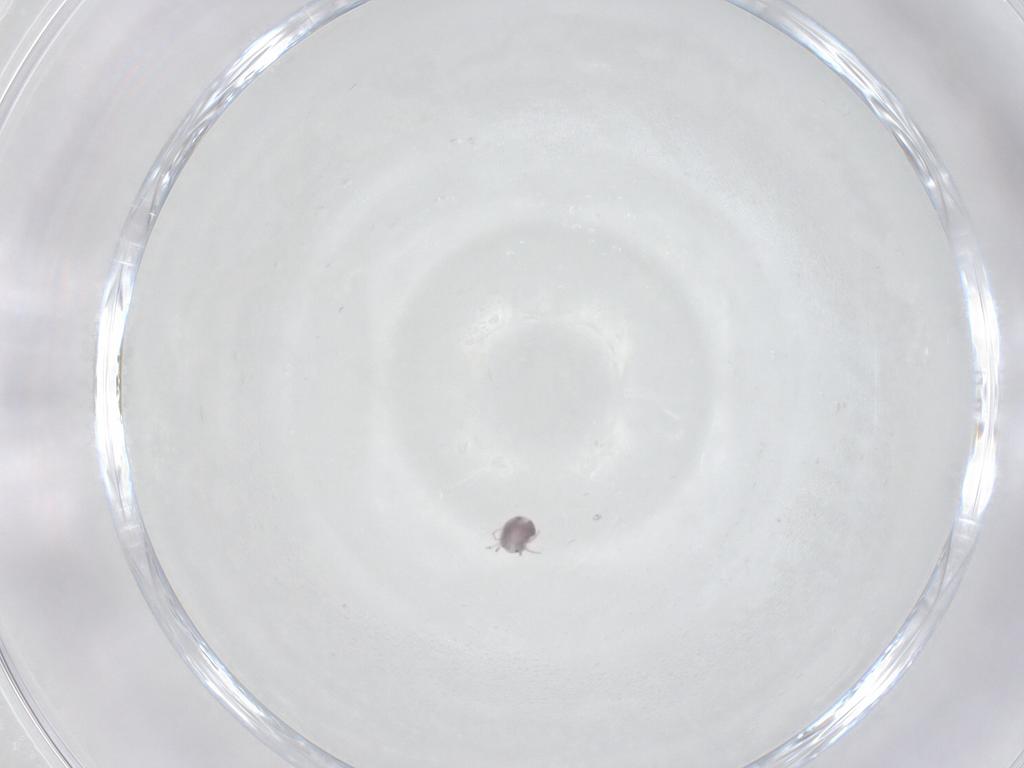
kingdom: Animalia
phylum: Arthropoda
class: Arachnida
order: Trombidiformes
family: Pionidae
